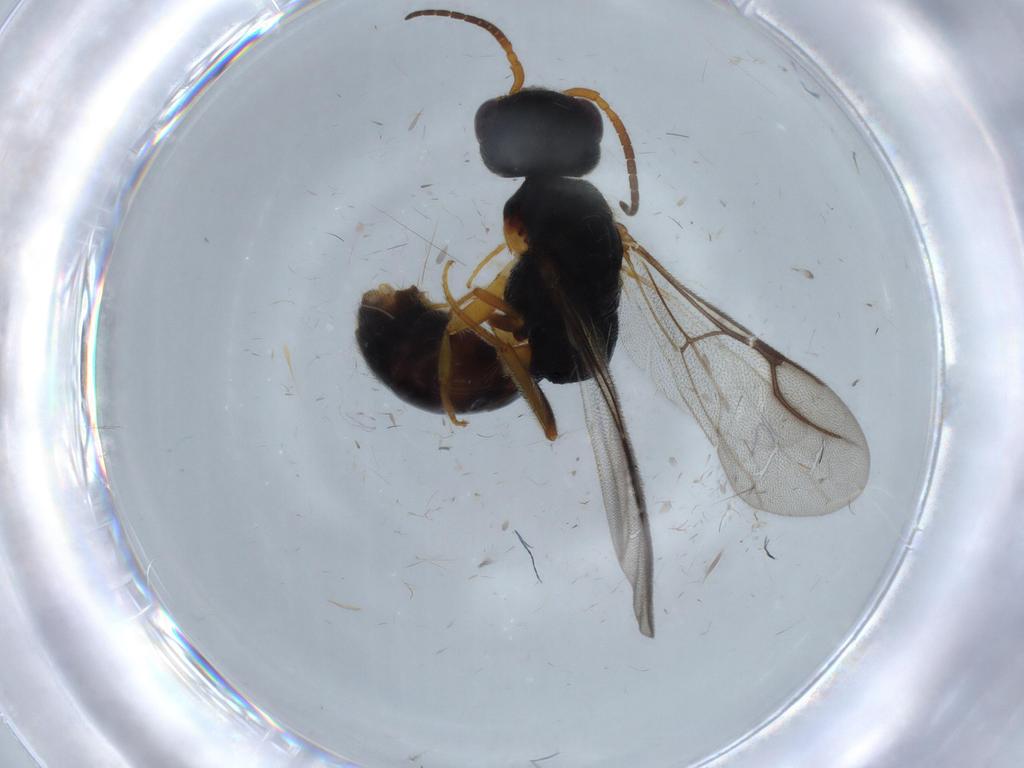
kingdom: Animalia
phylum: Arthropoda
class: Insecta
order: Hymenoptera
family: Bethylidae
